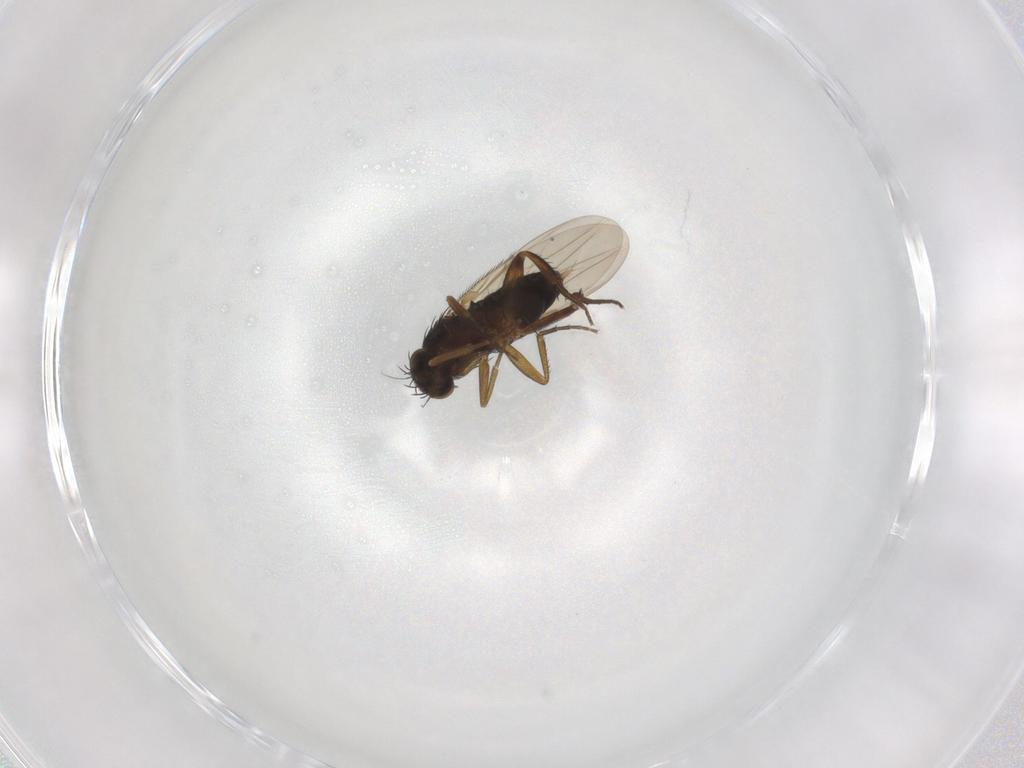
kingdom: Animalia
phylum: Arthropoda
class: Insecta
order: Diptera
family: Phoridae
